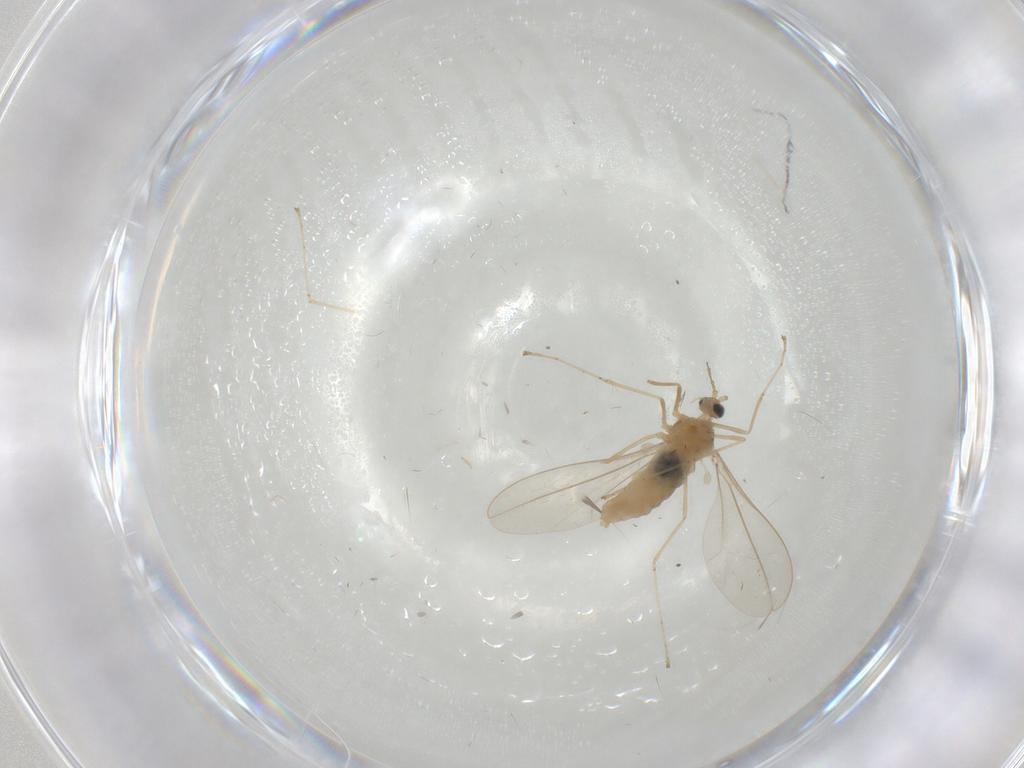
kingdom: Animalia
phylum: Arthropoda
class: Insecta
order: Diptera
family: Cecidomyiidae
